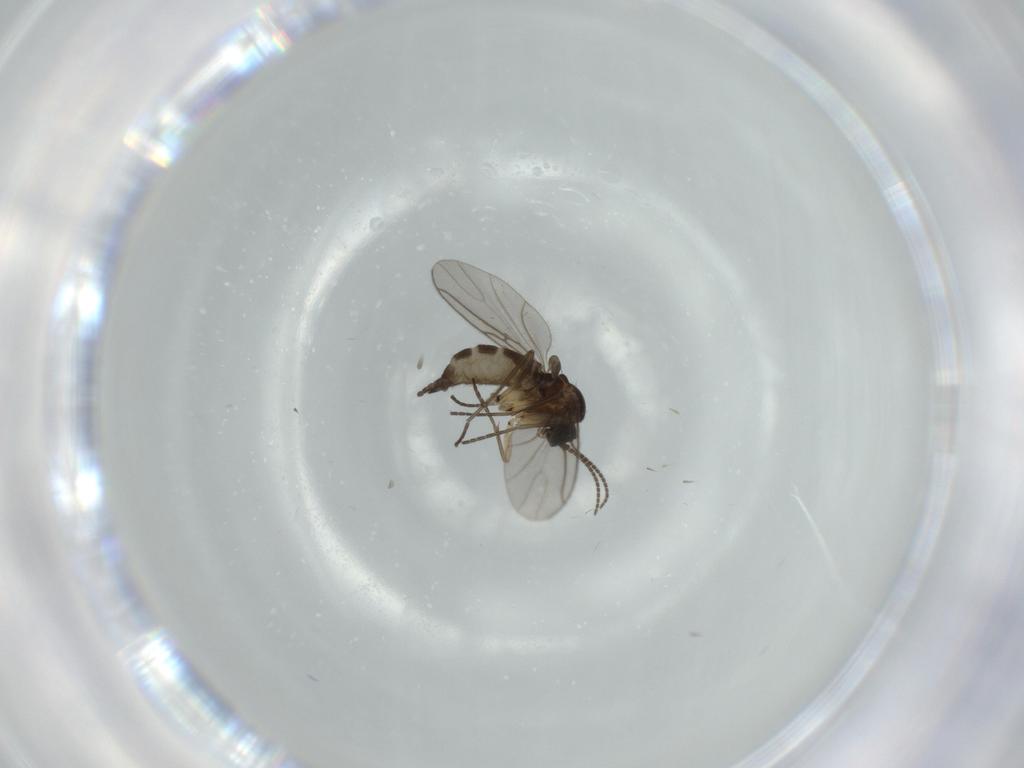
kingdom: Animalia
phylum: Arthropoda
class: Insecta
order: Diptera
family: Sciaridae
